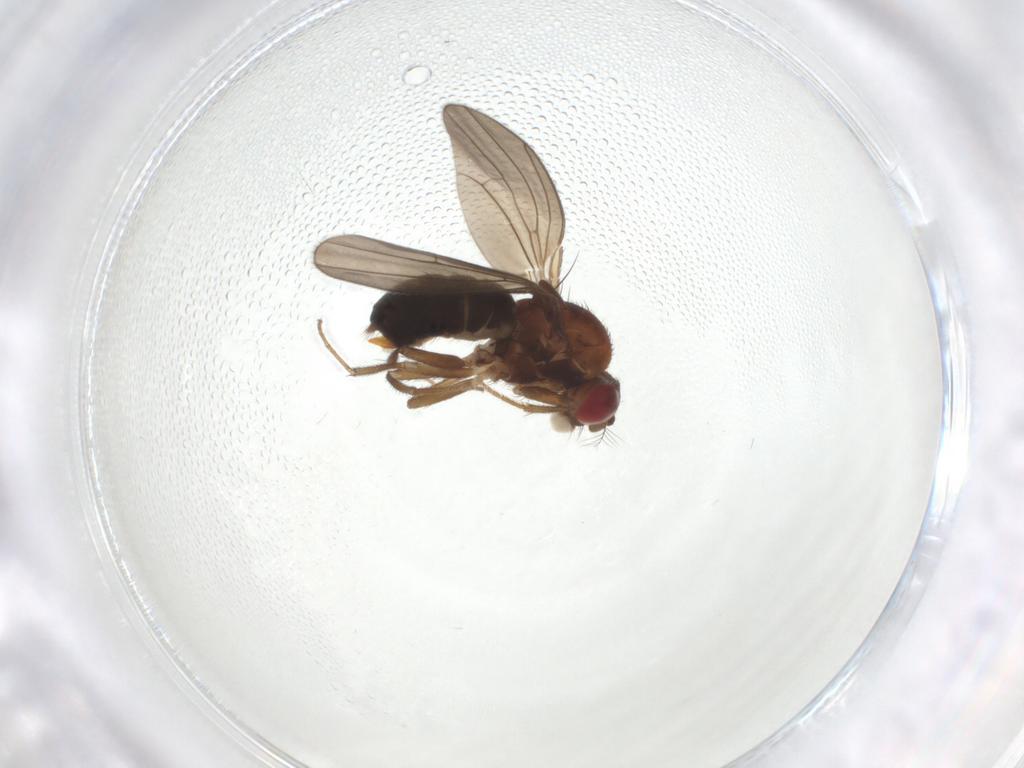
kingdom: Animalia
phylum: Arthropoda
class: Insecta
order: Diptera
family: Drosophilidae
